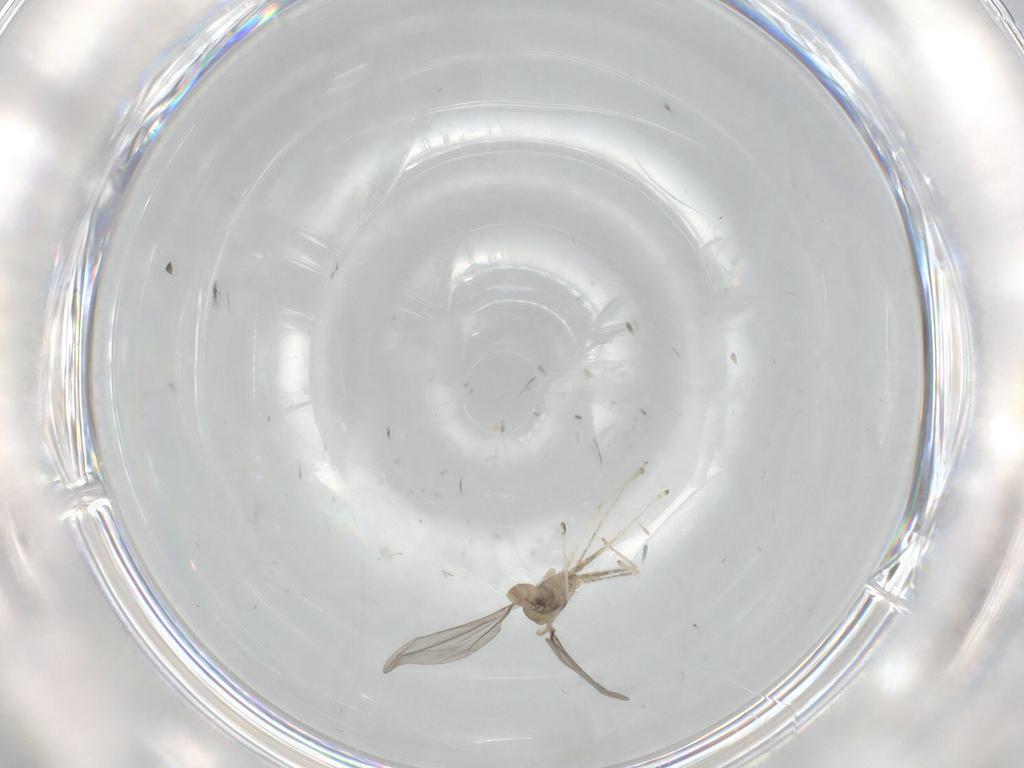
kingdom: Animalia
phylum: Arthropoda
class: Insecta
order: Diptera
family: Cecidomyiidae
